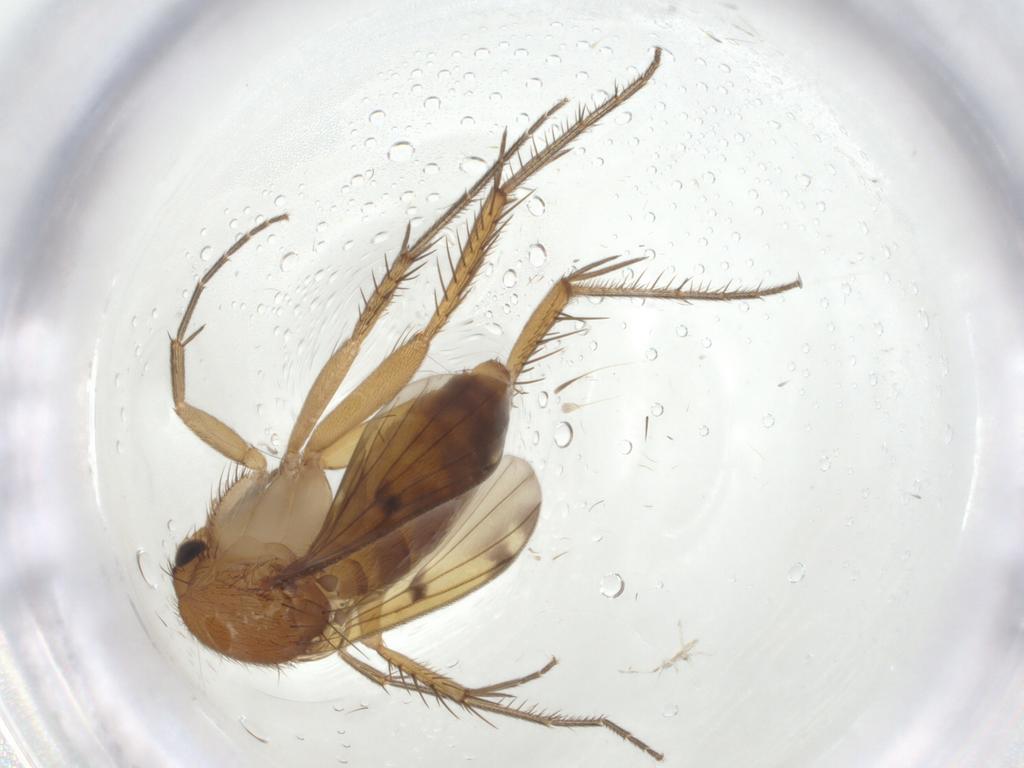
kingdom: Animalia
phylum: Arthropoda
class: Insecta
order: Diptera
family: Mycetophilidae
